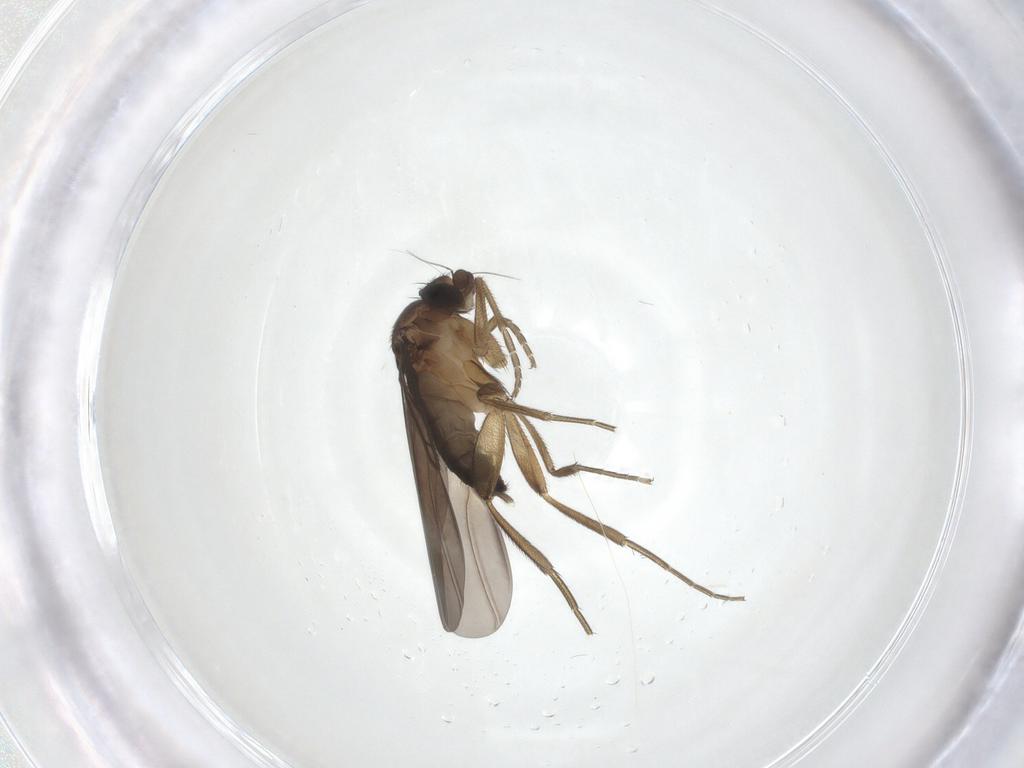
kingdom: Animalia
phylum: Arthropoda
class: Insecta
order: Diptera
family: Phoridae
